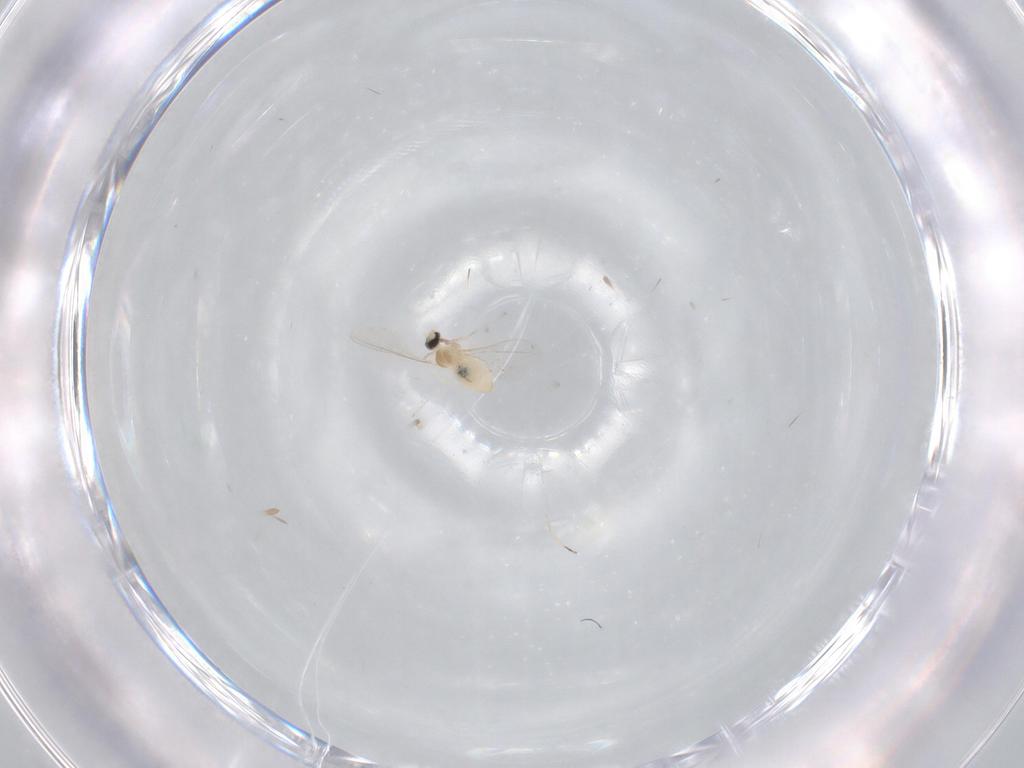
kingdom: Animalia
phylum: Arthropoda
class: Insecta
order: Diptera
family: Cecidomyiidae
